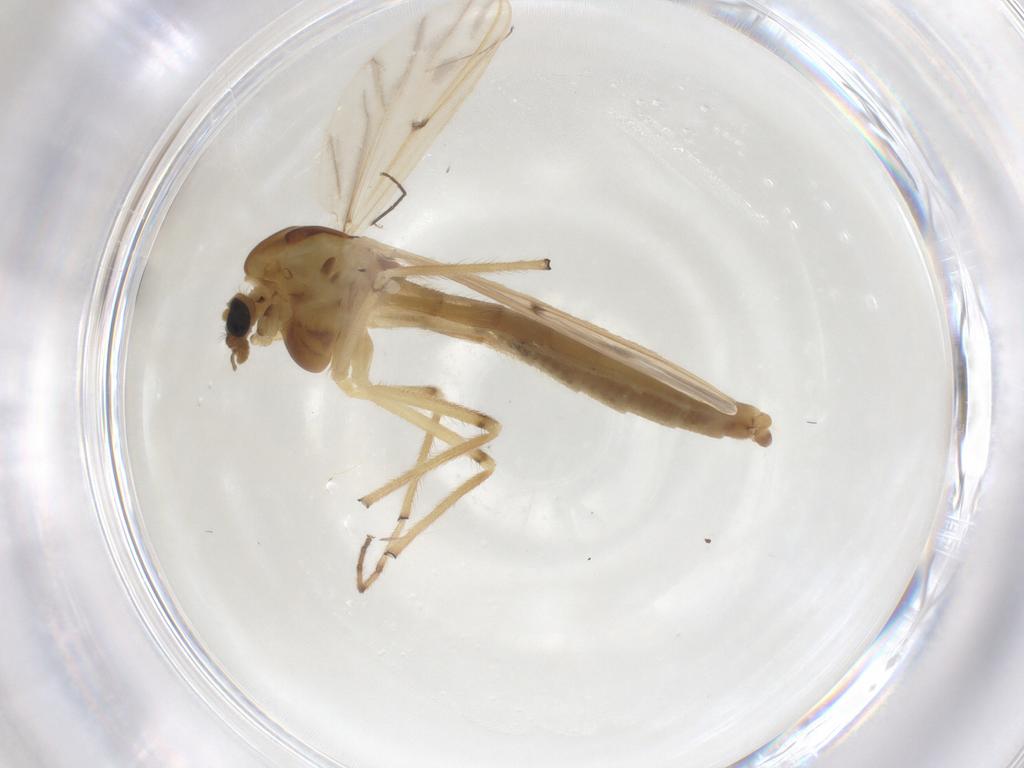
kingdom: Animalia
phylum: Arthropoda
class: Insecta
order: Diptera
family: Chironomidae
